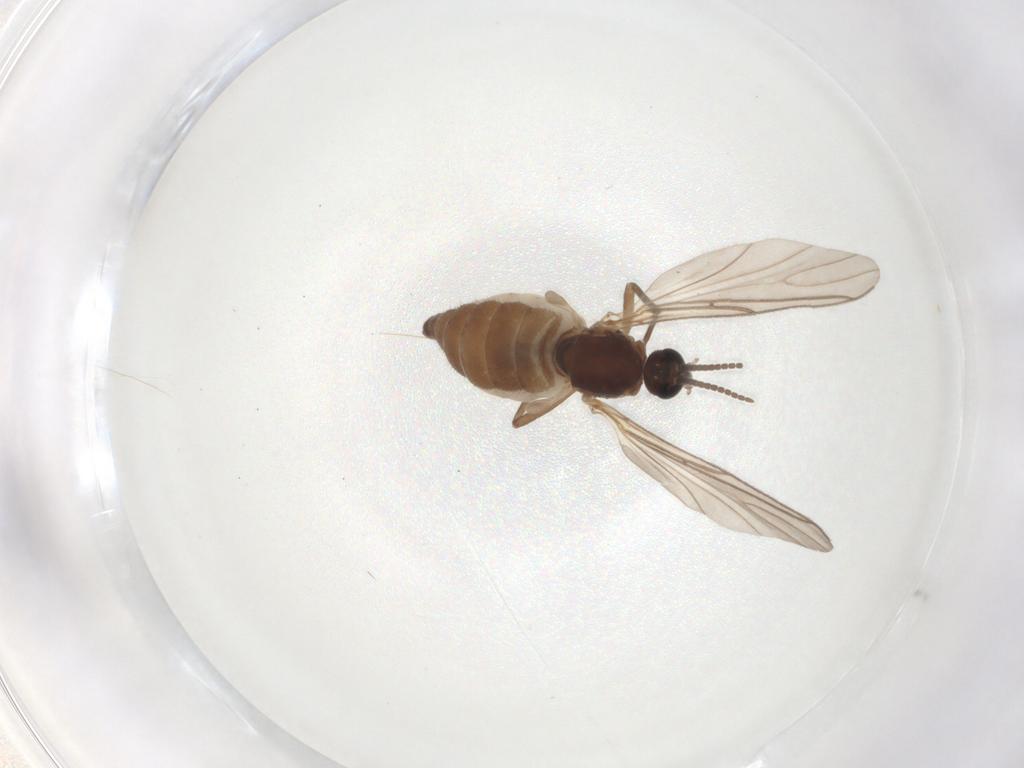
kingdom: Animalia
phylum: Arthropoda
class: Insecta
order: Diptera
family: Sciaridae
